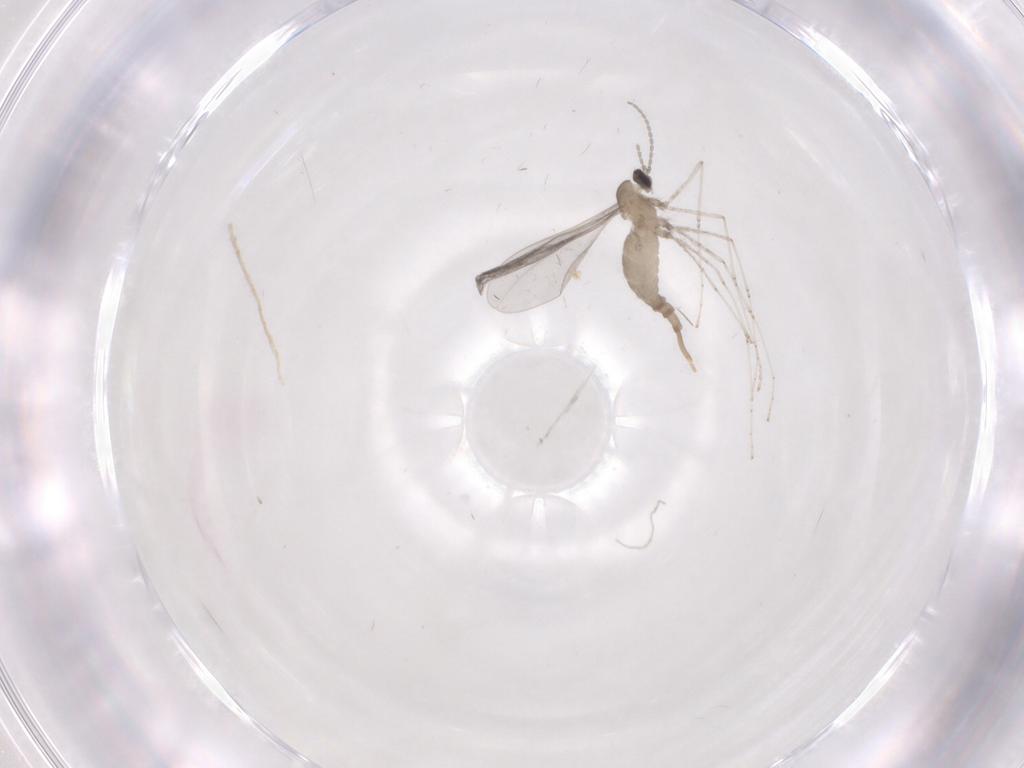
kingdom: Animalia
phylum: Arthropoda
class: Insecta
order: Diptera
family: Cecidomyiidae
